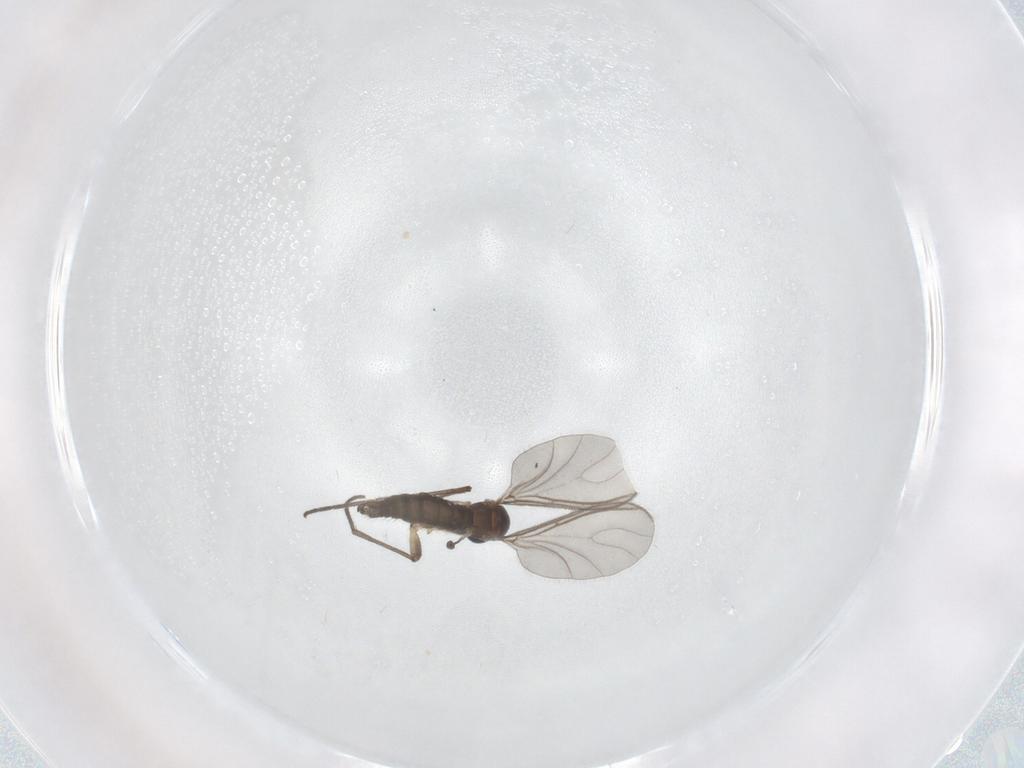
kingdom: Animalia
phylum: Arthropoda
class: Insecta
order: Diptera
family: Sciaridae
